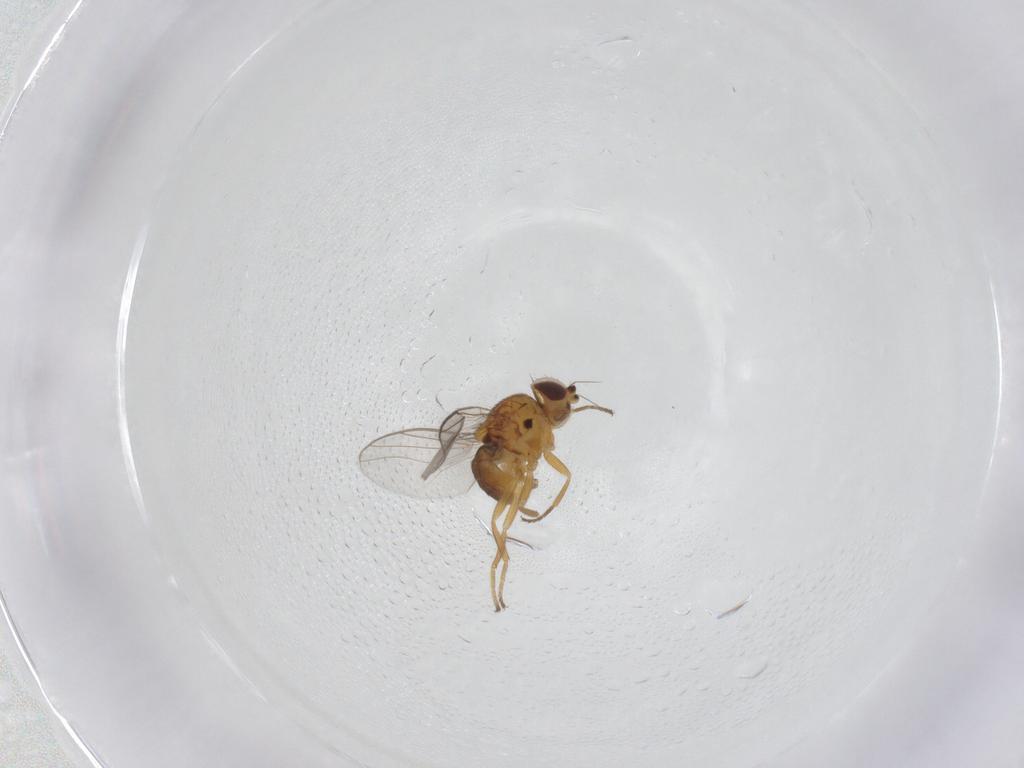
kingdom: Animalia
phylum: Arthropoda
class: Insecta
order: Diptera
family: Chloropidae
